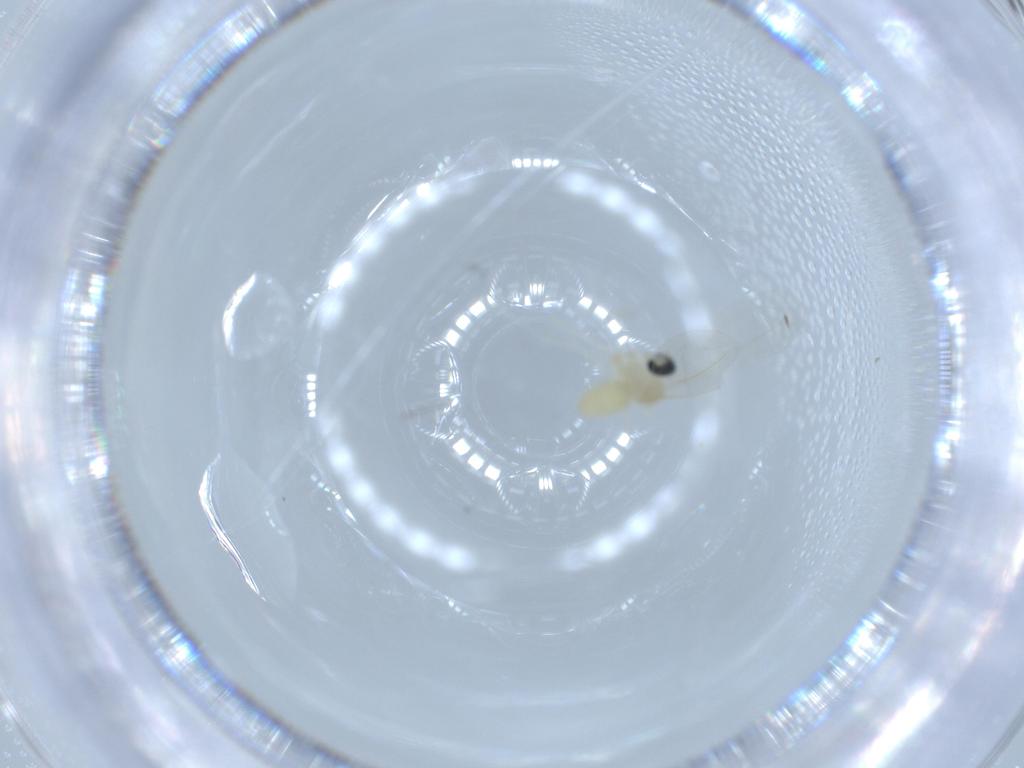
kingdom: Animalia
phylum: Arthropoda
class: Insecta
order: Diptera
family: Cecidomyiidae
